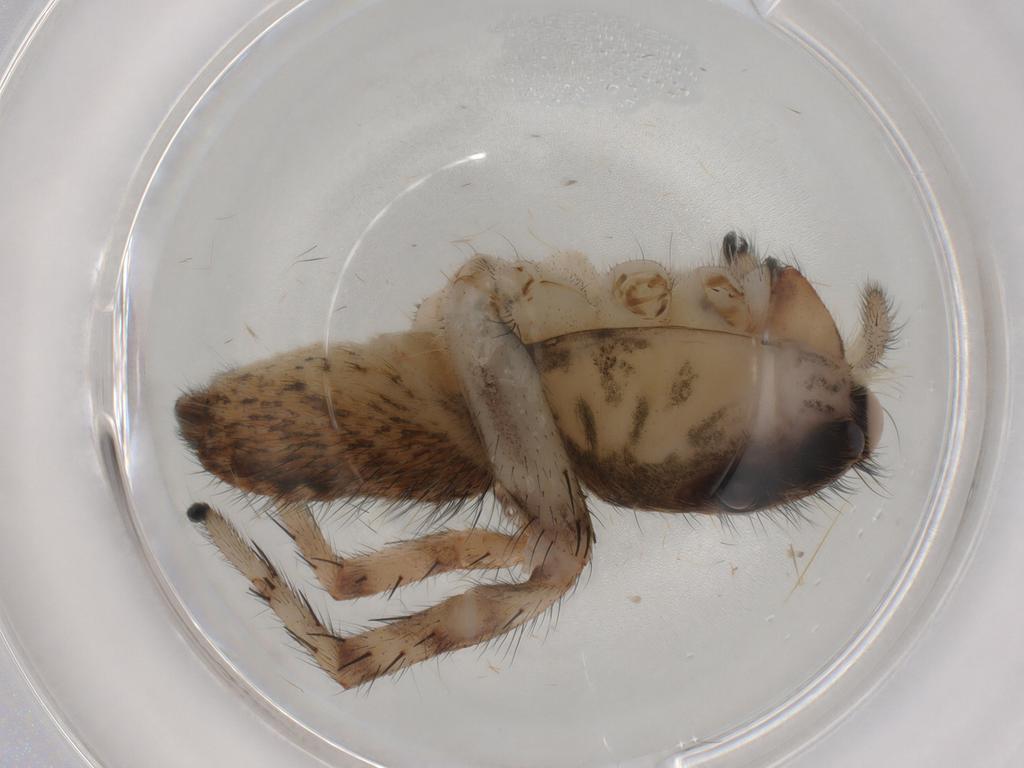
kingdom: Animalia
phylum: Arthropoda
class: Arachnida
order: Araneae
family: Salticidae
